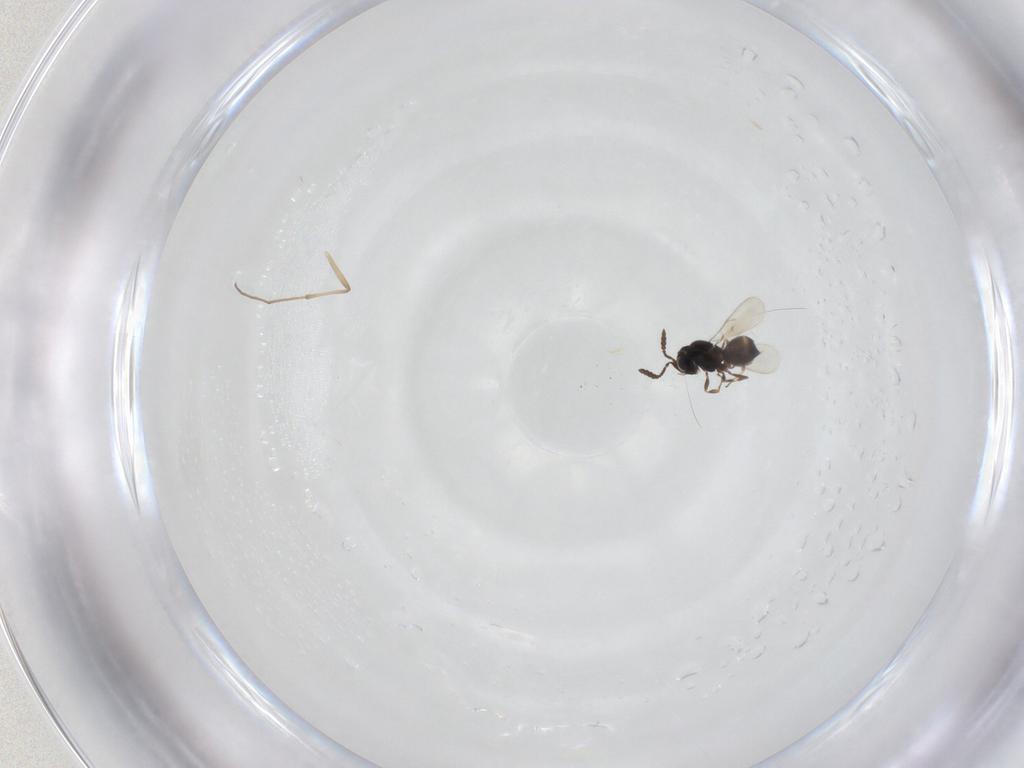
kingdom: Animalia
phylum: Arthropoda
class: Insecta
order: Hymenoptera
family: Scelionidae
